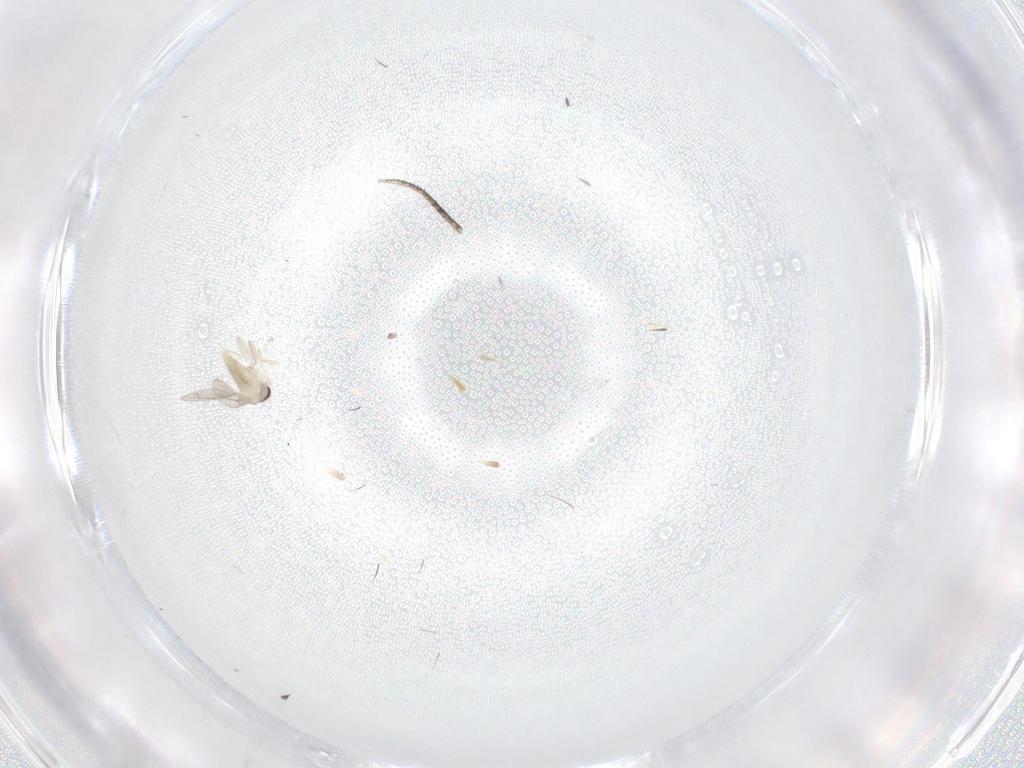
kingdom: Animalia
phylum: Arthropoda
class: Insecta
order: Diptera
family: Cecidomyiidae
